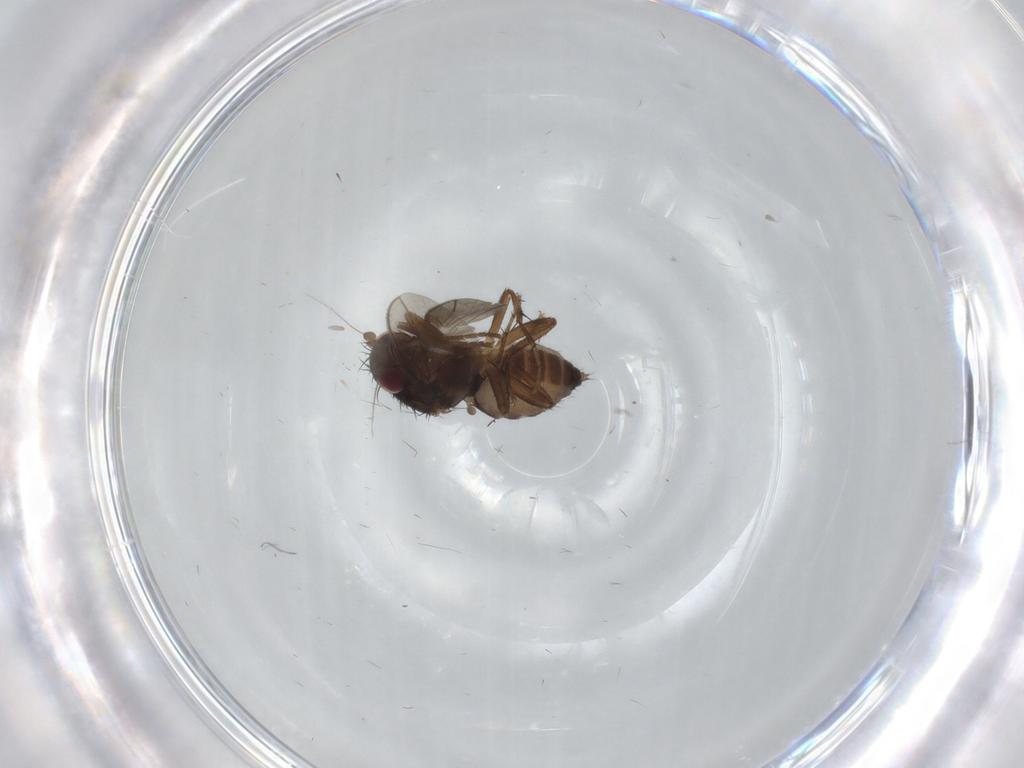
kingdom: Animalia
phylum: Arthropoda
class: Insecta
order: Diptera
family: Chironomidae
